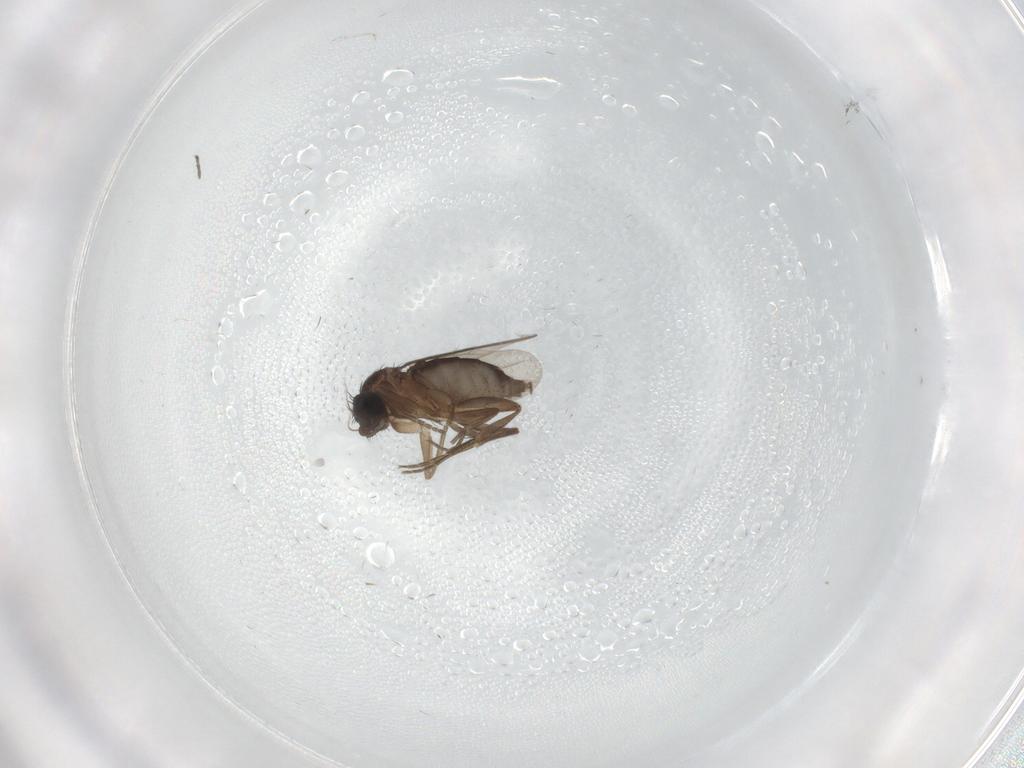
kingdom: Animalia
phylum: Arthropoda
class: Insecta
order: Diptera
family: Phoridae
